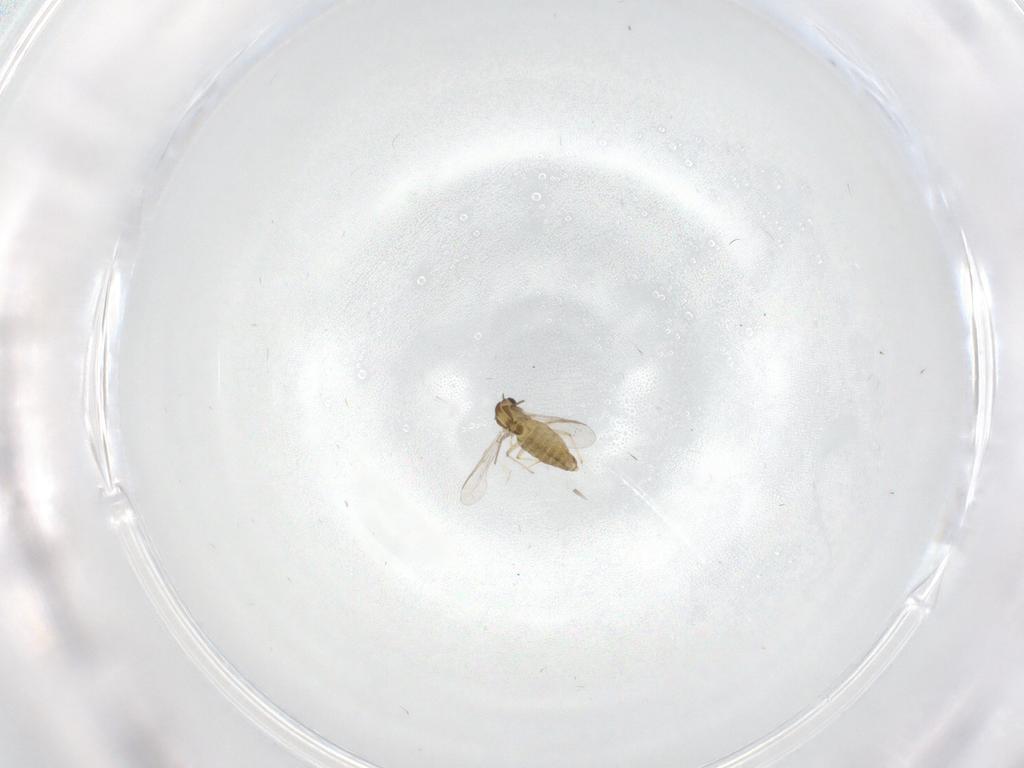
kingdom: Animalia
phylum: Arthropoda
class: Insecta
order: Diptera
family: Chironomidae
